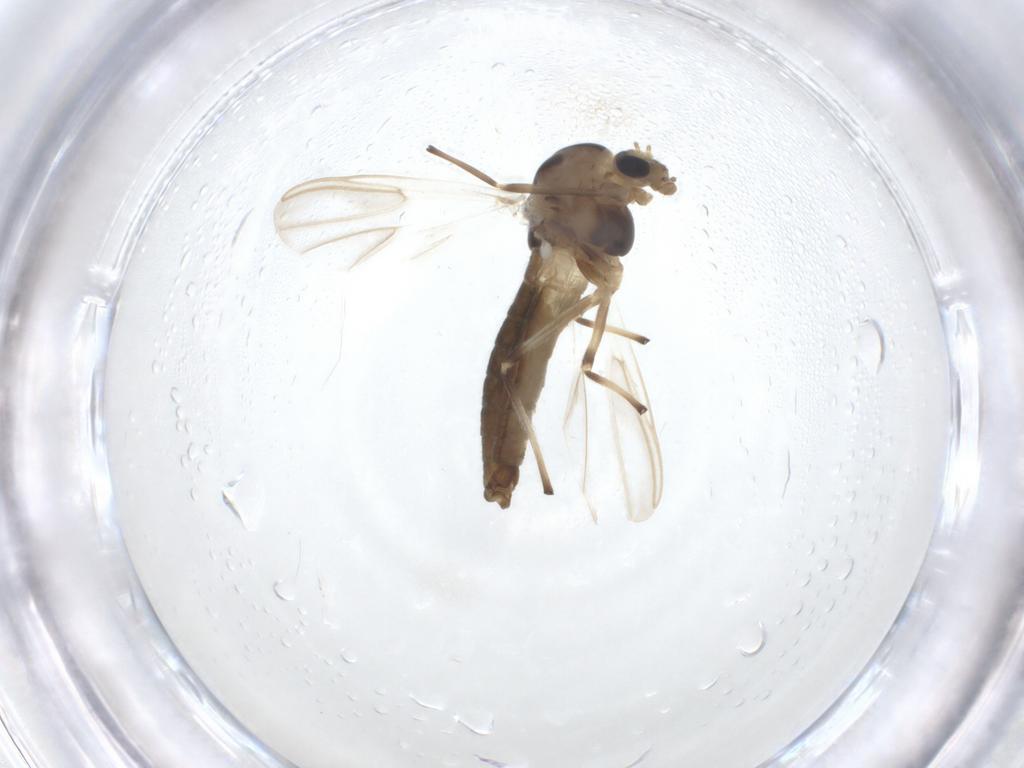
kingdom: Animalia
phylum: Arthropoda
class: Insecta
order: Diptera
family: Chironomidae
